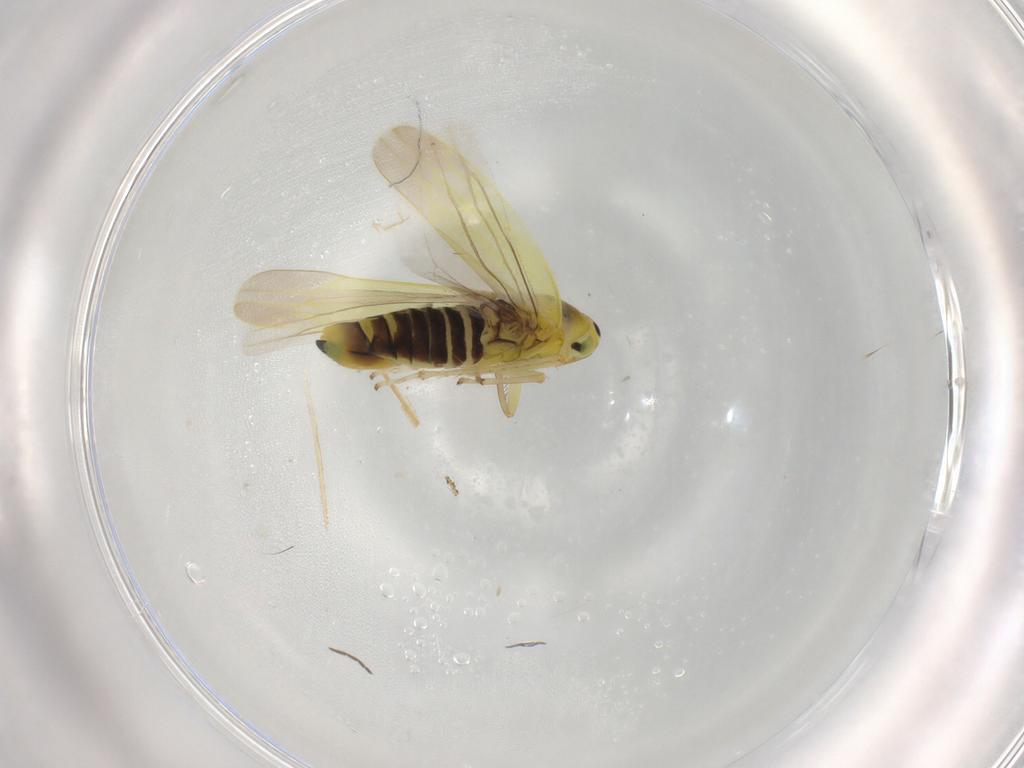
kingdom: Animalia
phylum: Arthropoda
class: Insecta
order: Hemiptera
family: Cicadellidae
